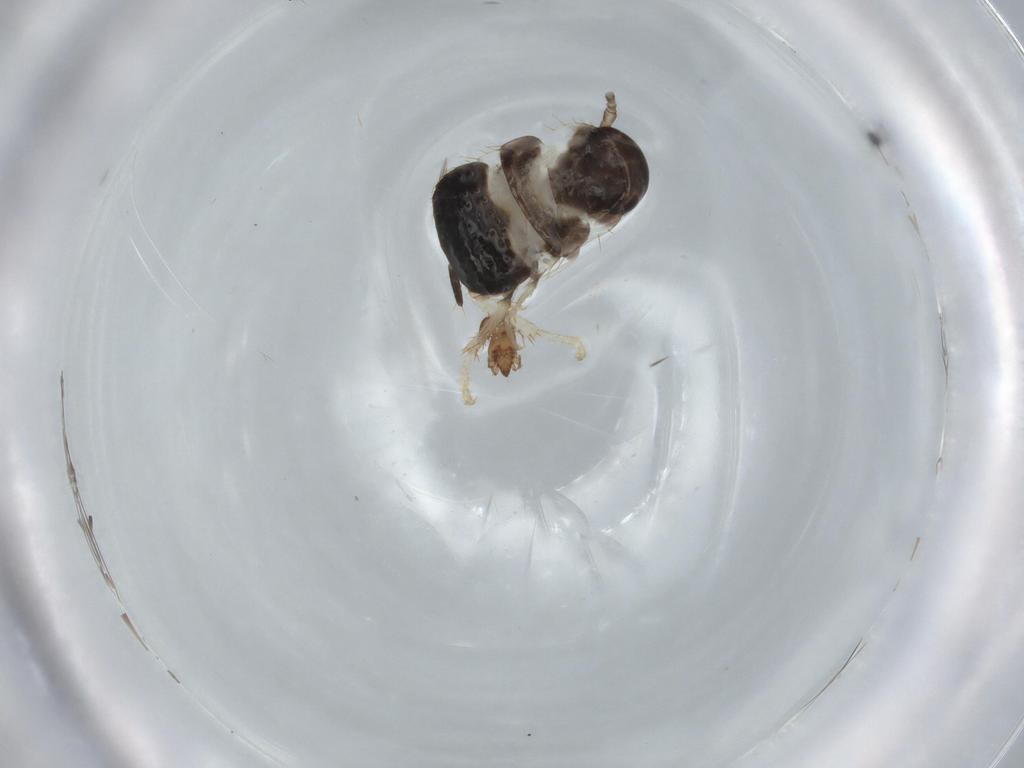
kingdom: Animalia
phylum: Arthropoda
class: Insecta
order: Blattodea
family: Ectobiidae
